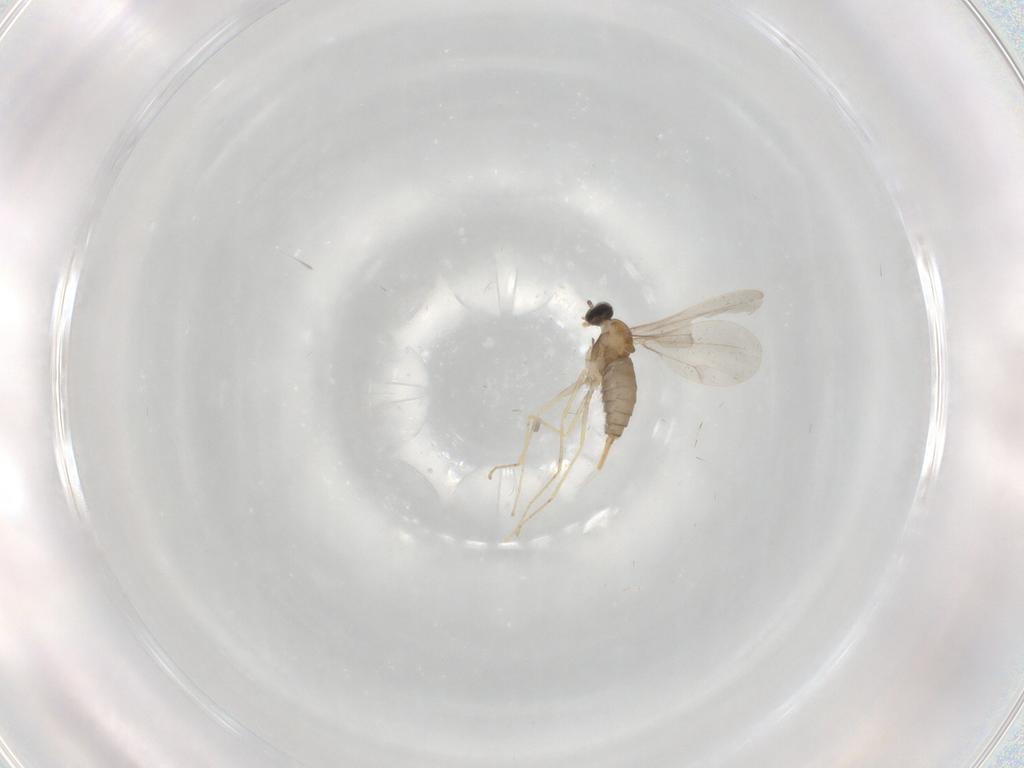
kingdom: Animalia
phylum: Arthropoda
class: Insecta
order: Diptera
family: Cecidomyiidae
